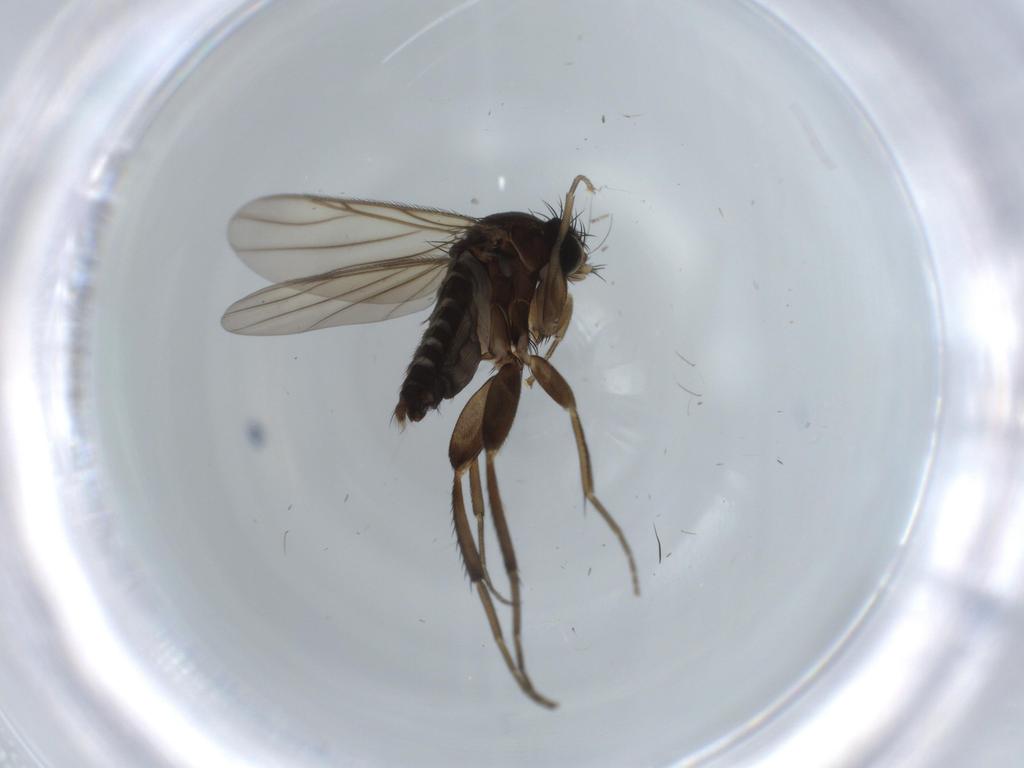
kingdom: Animalia
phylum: Arthropoda
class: Insecta
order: Diptera
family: Phoridae
